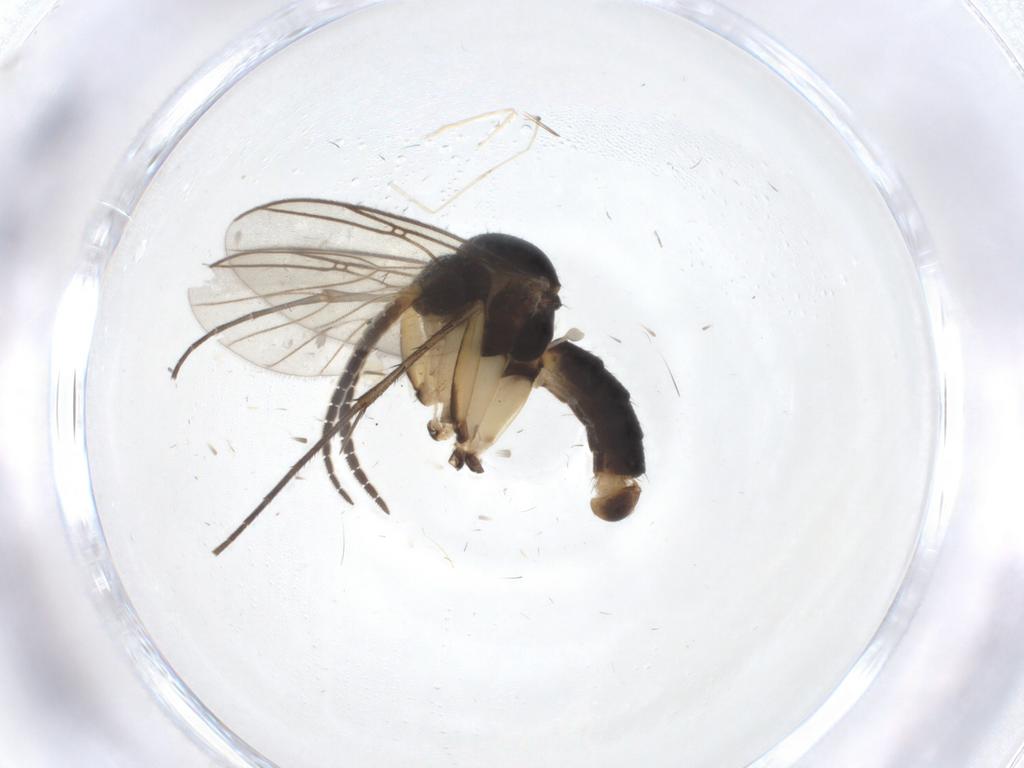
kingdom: Animalia
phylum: Arthropoda
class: Insecta
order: Diptera
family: Mycetophilidae
